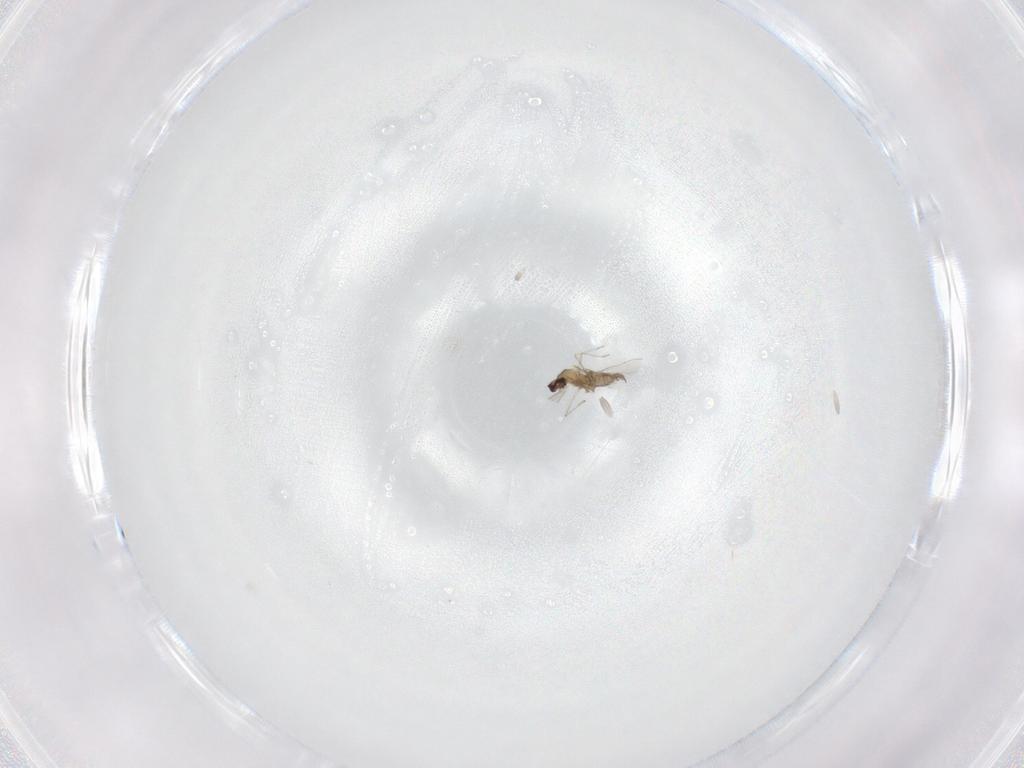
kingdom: Animalia
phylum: Arthropoda
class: Insecta
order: Diptera
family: Cecidomyiidae
